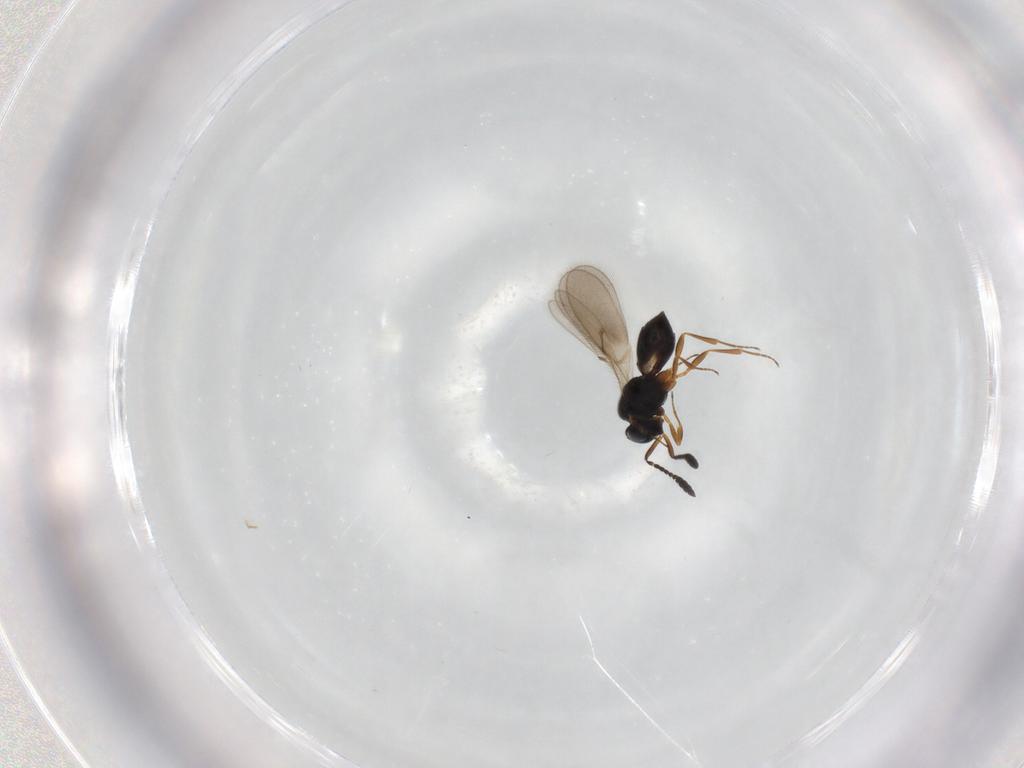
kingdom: Animalia
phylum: Arthropoda
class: Insecta
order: Hymenoptera
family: Scelionidae
